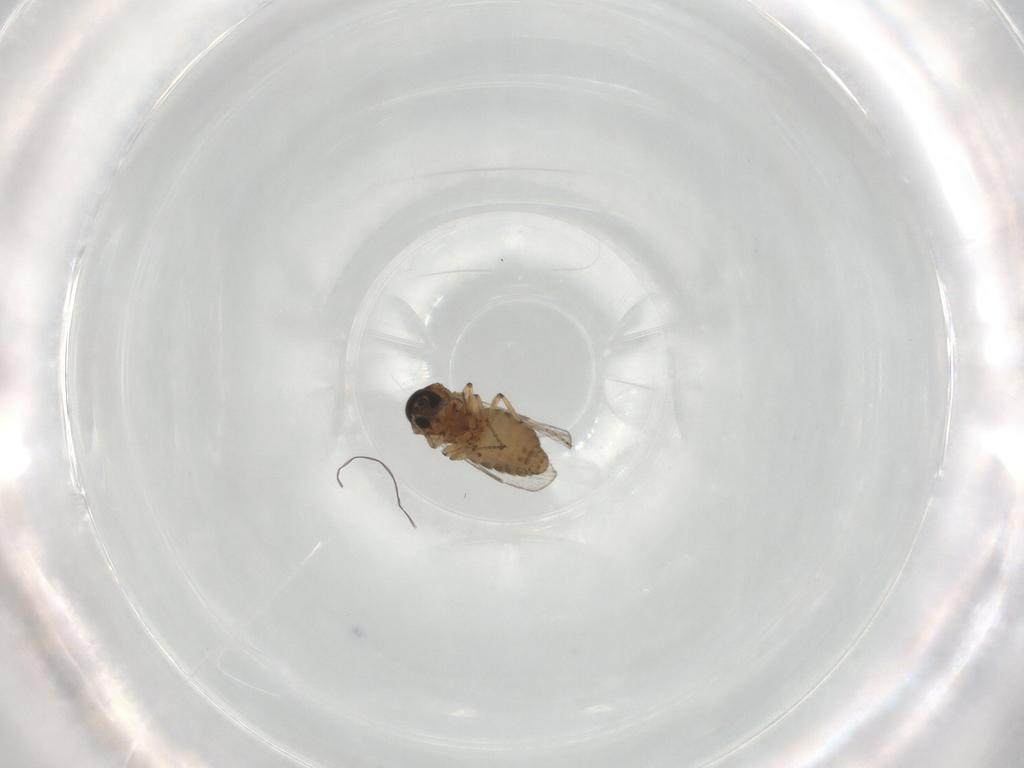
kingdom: Animalia
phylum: Arthropoda
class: Insecta
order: Diptera
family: Ceratopogonidae
